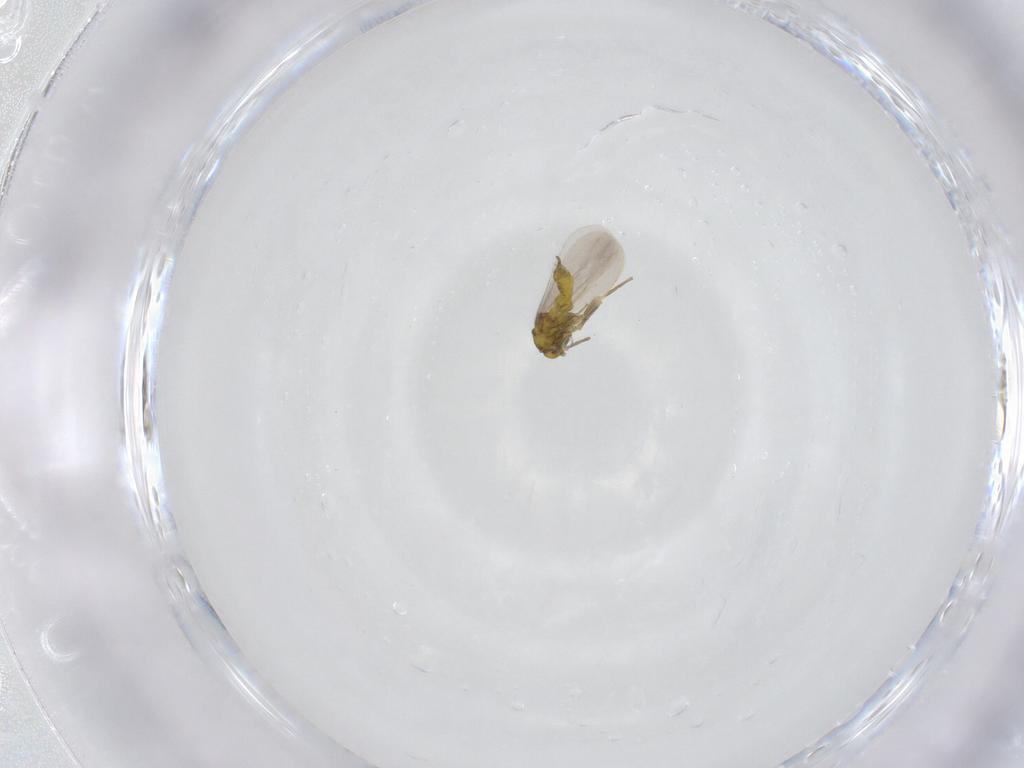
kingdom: Animalia
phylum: Arthropoda
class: Insecta
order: Hemiptera
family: Aleyrodidae
